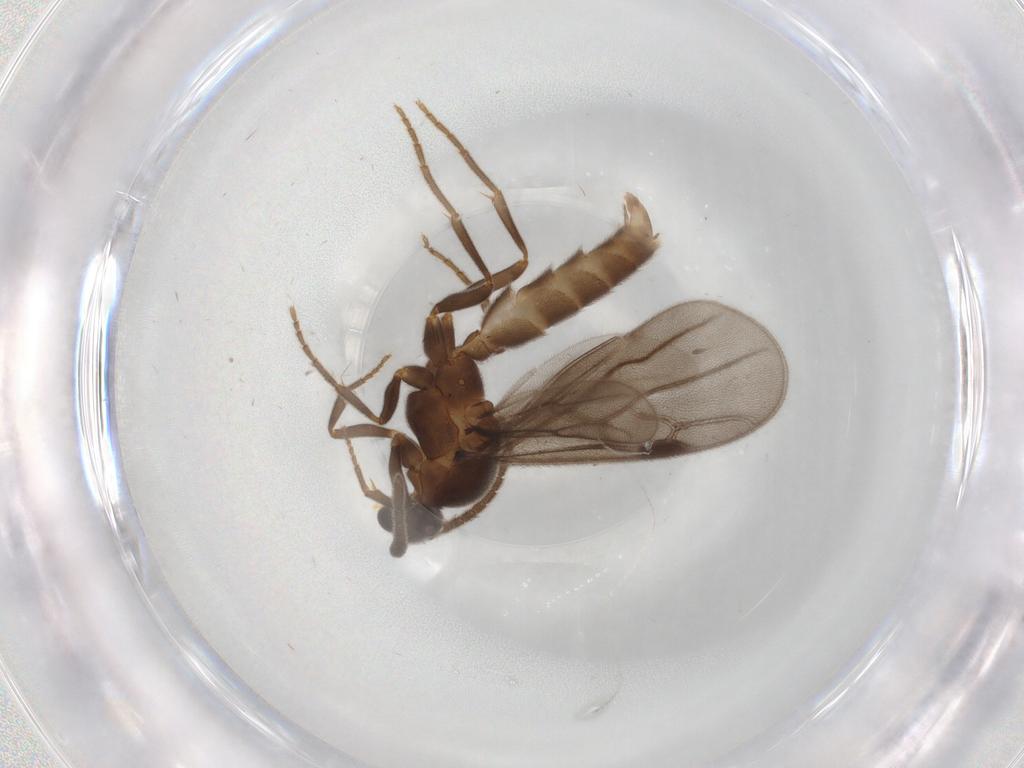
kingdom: Animalia
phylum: Arthropoda
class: Insecta
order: Hymenoptera
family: Formicidae
